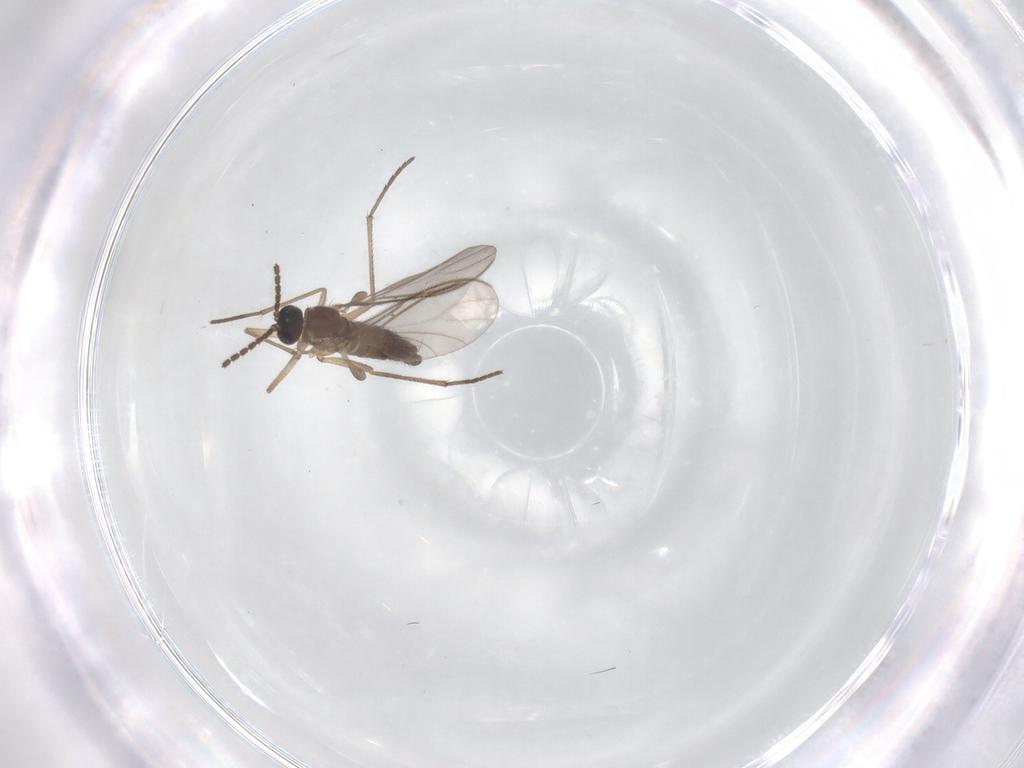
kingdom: Animalia
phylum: Arthropoda
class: Insecta
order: Diptera
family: Sciaridae
